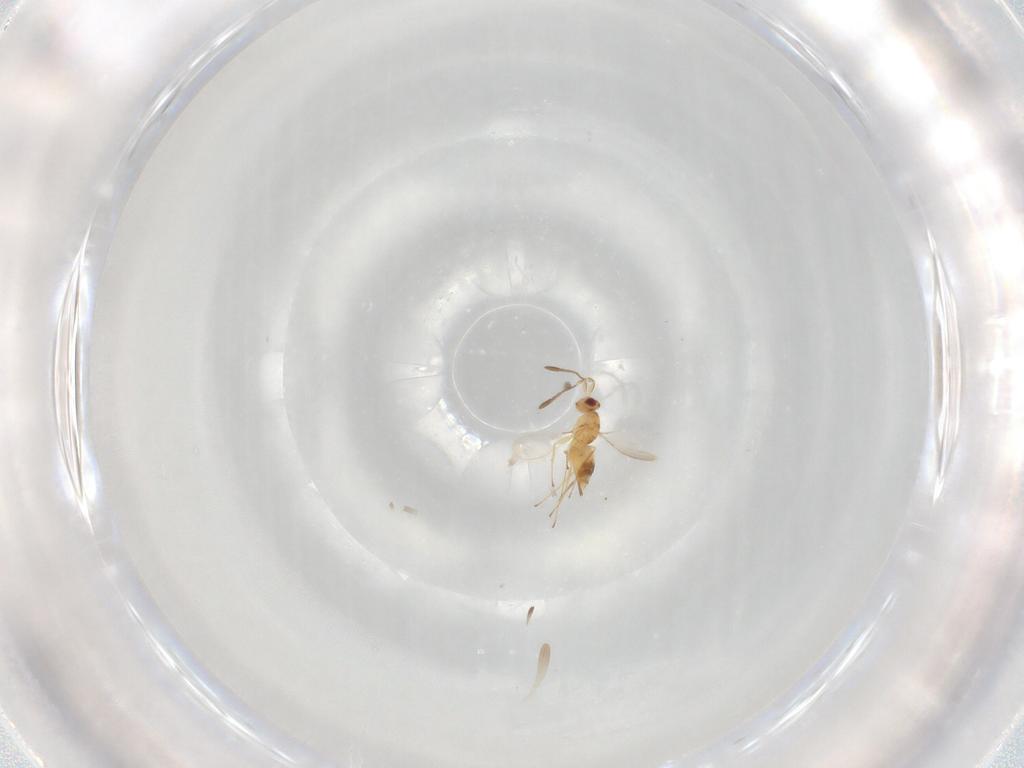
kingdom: Animalia
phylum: Arthropoda
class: Insecta
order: Hymenoptera
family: Mymaridae
